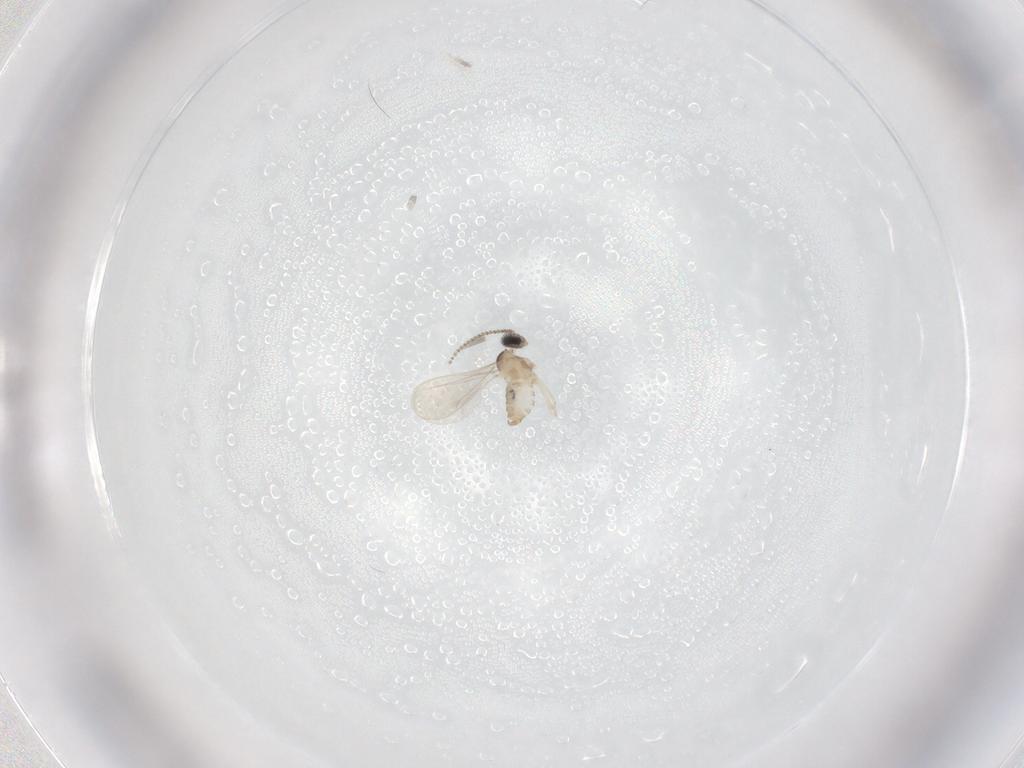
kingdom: Animalia
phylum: Arthropoda
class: Insecta
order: Diptera
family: Cecidomyiidae
